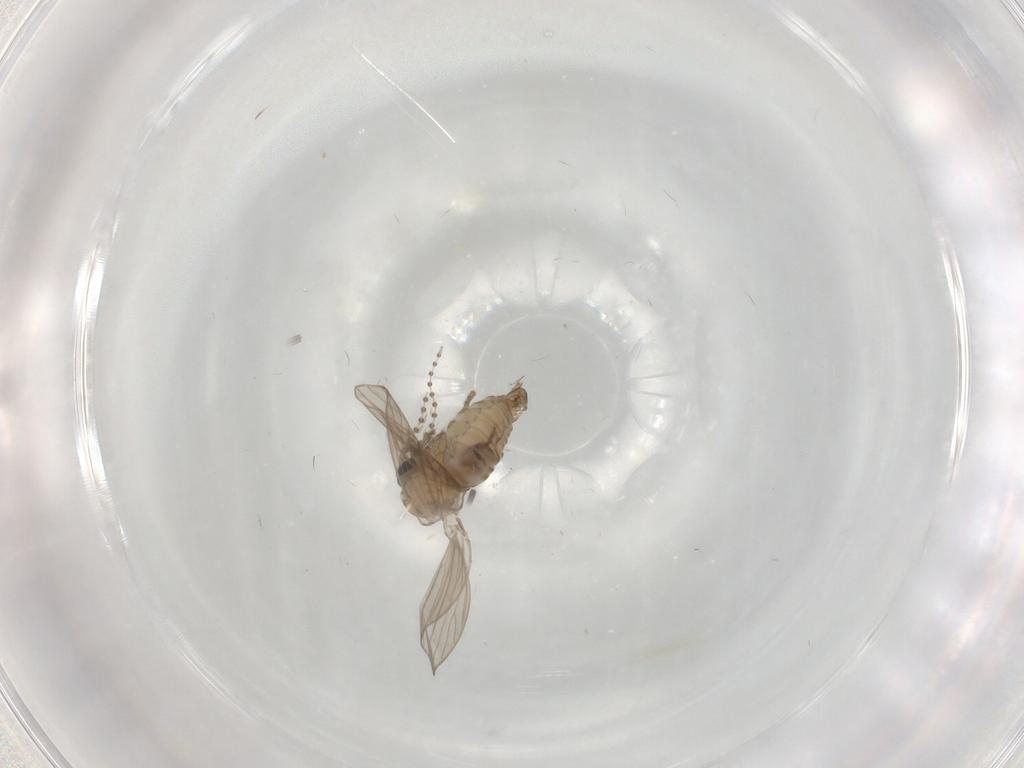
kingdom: Animalia
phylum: Arthropoda
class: Insecta
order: Diptera
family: Psychodidae
